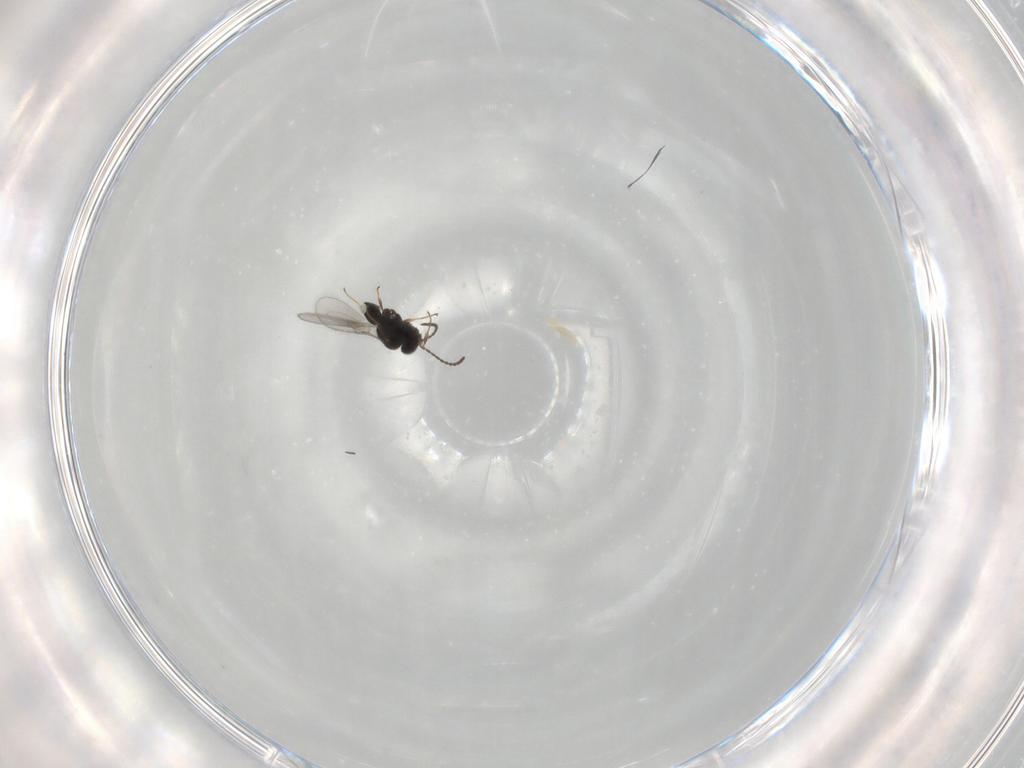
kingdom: Animalia
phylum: Arthropoda
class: Insecta
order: Hymenoptera
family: Scelionidae
